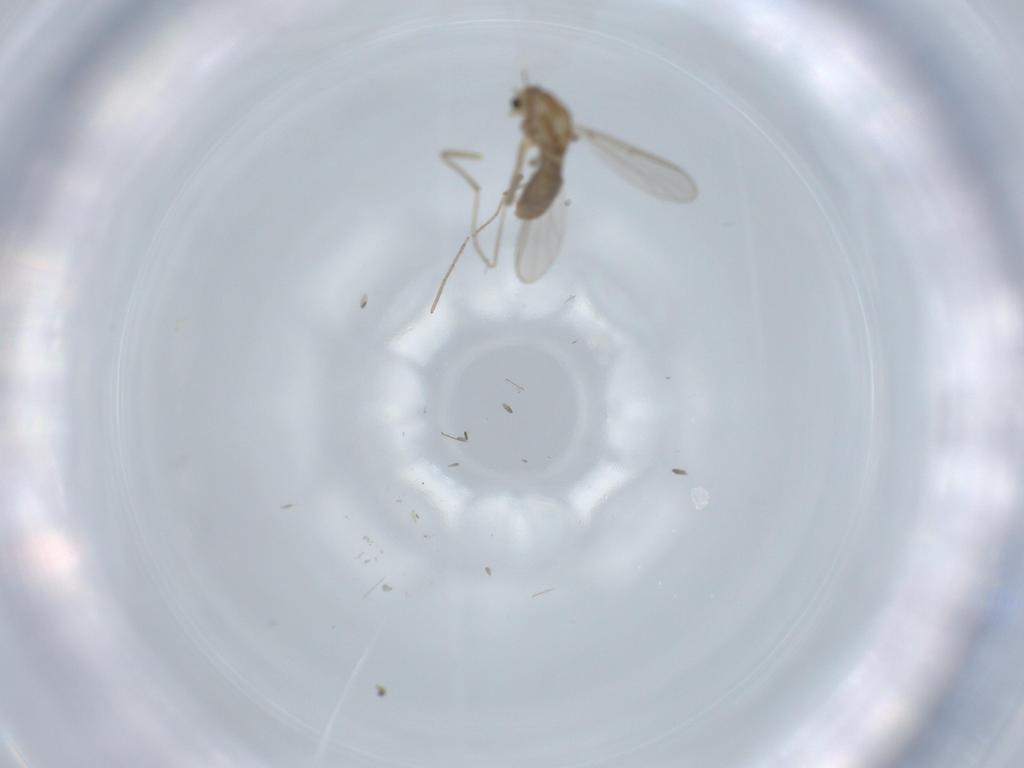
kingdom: Animalia
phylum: Arthropoda
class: Insecta
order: Diptera
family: Chironomidae
